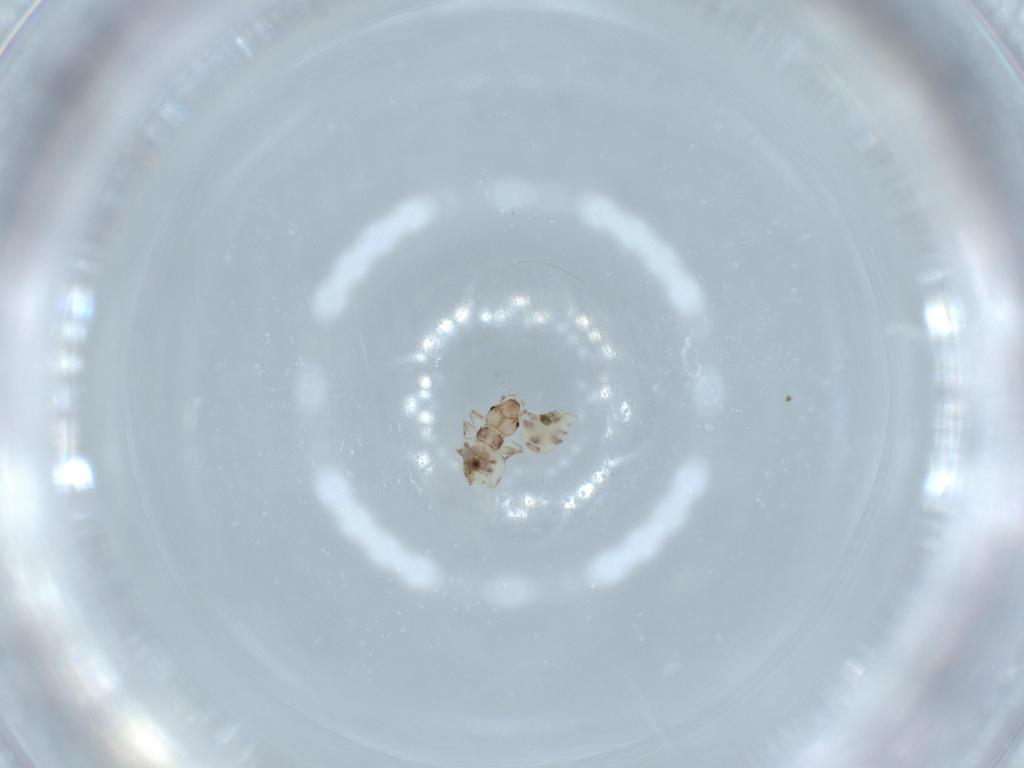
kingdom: Animalia
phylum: Arthropoda
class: Insecta
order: Psocodea
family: Liposcelididae
